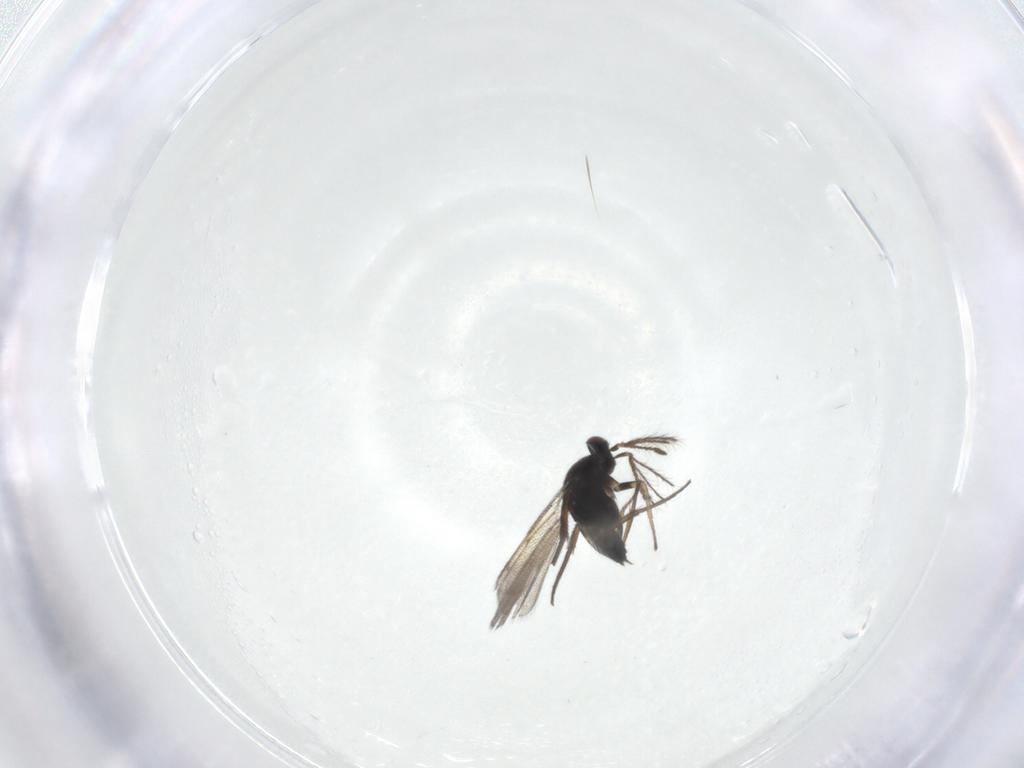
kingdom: Animalia
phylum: Arthropoda
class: Insecta
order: Hymenoptera
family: Eulophidae
